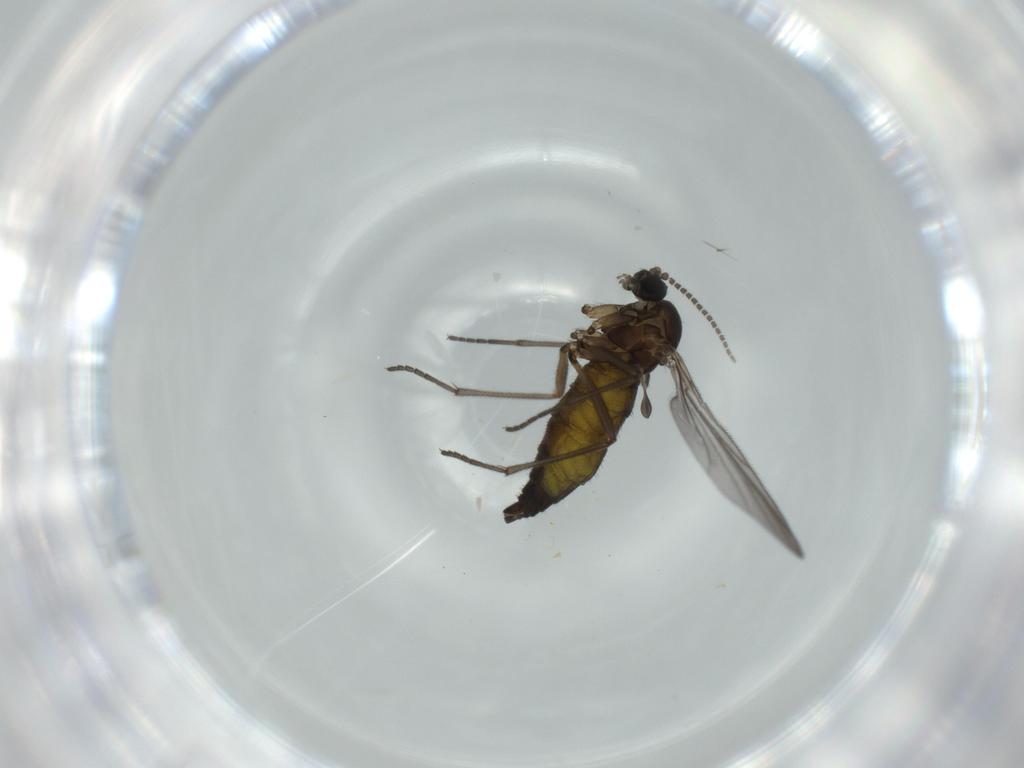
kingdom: Animalia
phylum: Arthropoda
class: Insecta
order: Diptera
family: Sciaridae
